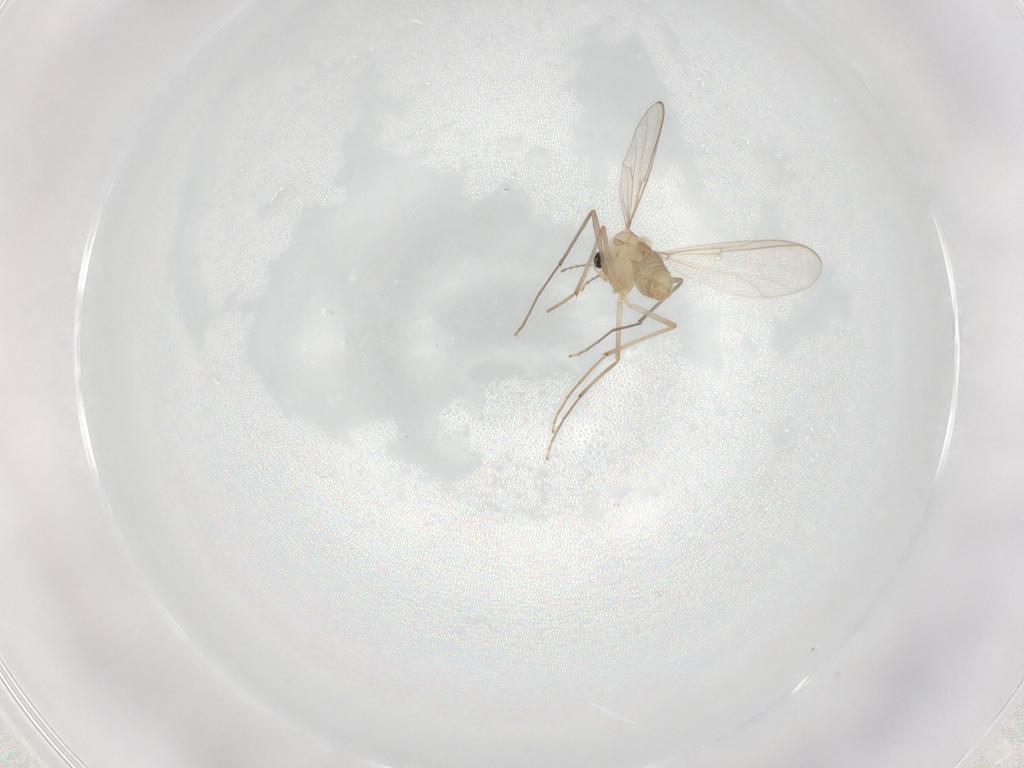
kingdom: Animalia
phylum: Arthropoda
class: Insecta
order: Diptera
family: Chironomidae
